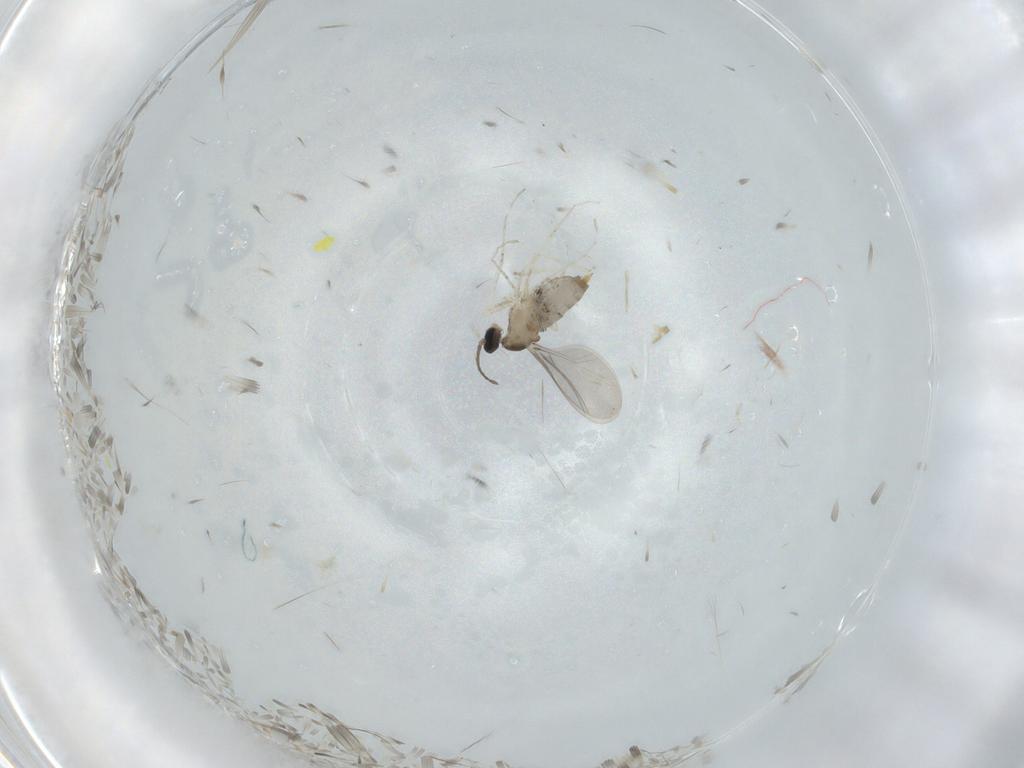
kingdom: Animalia
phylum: Arthropoda
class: Insecta
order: Diptera
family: Cecidomyiidae
